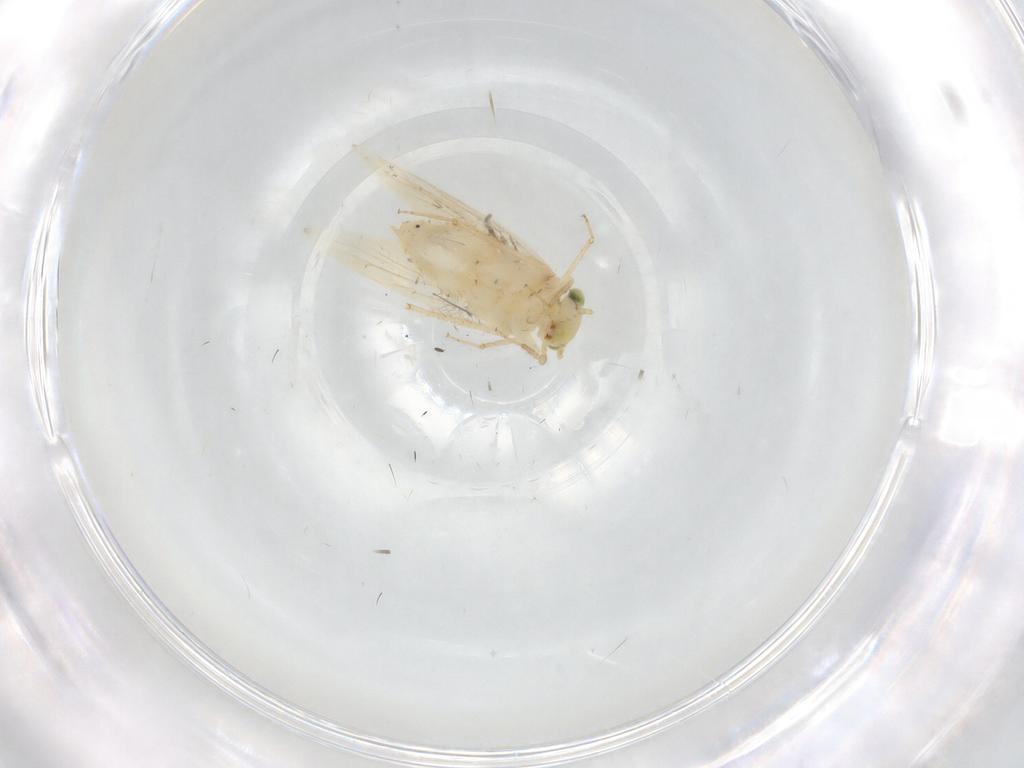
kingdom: Animalia
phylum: Arthropoda
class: Insecta
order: Psocodea
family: Lepidopsocidae
